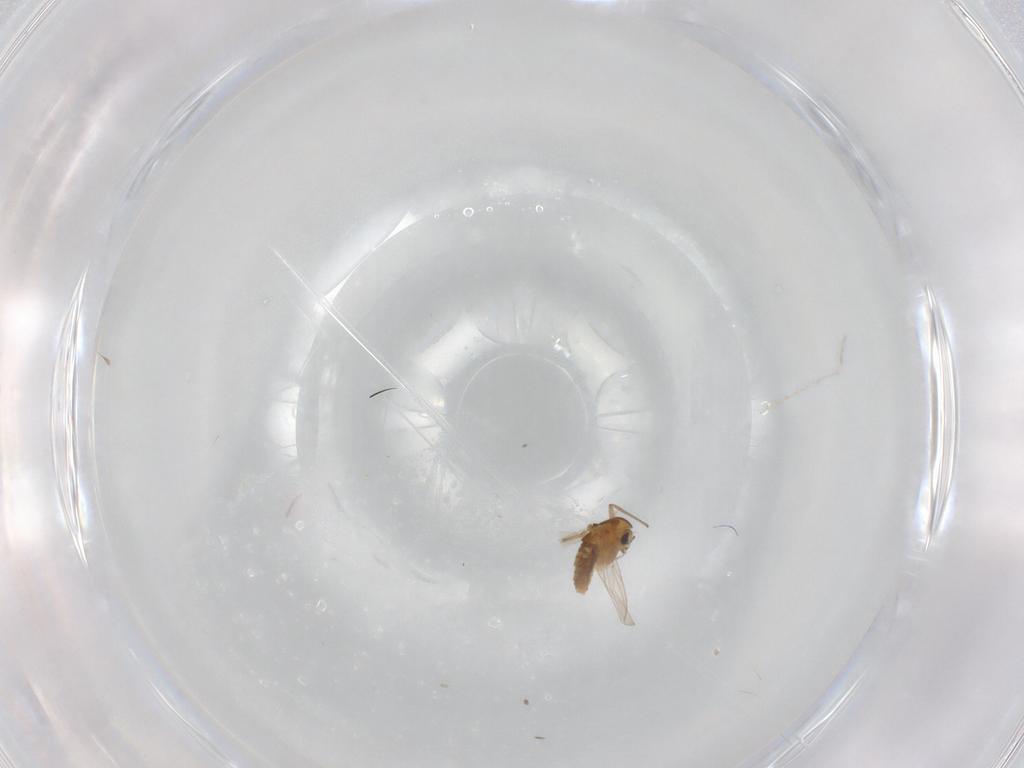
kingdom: Animalia
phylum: Arthropoda
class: Insecta
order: Diptera
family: Chironomidae
